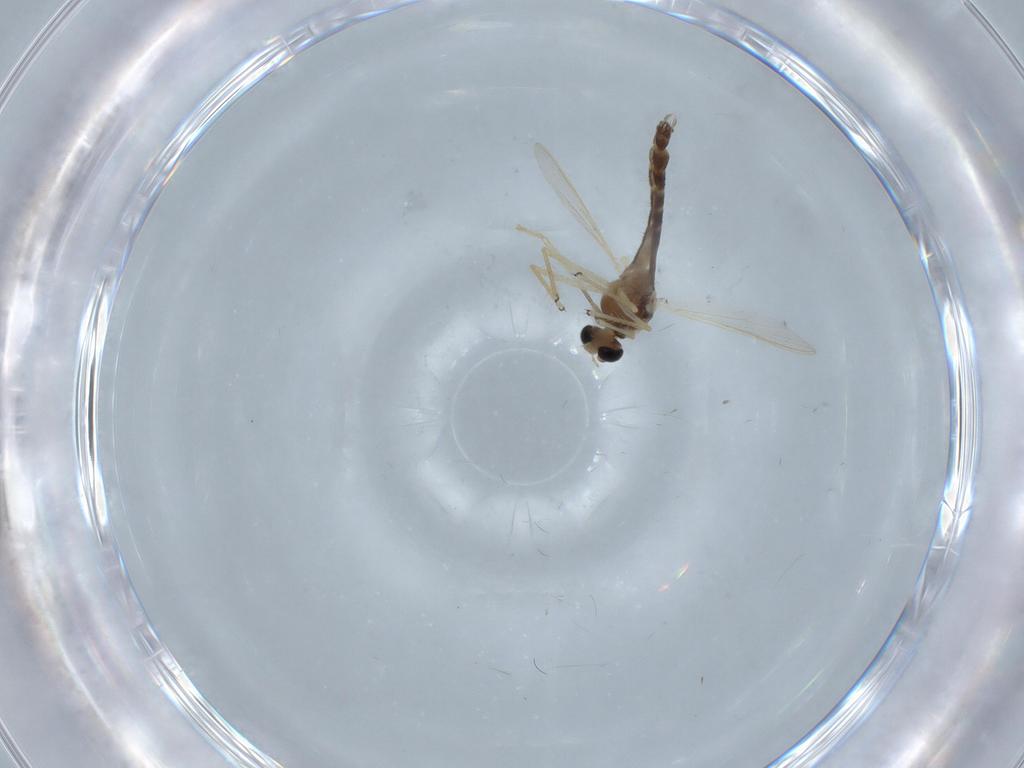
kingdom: Animalia
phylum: Arthropoda
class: Insecta
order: Diptera
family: Chironomidae
